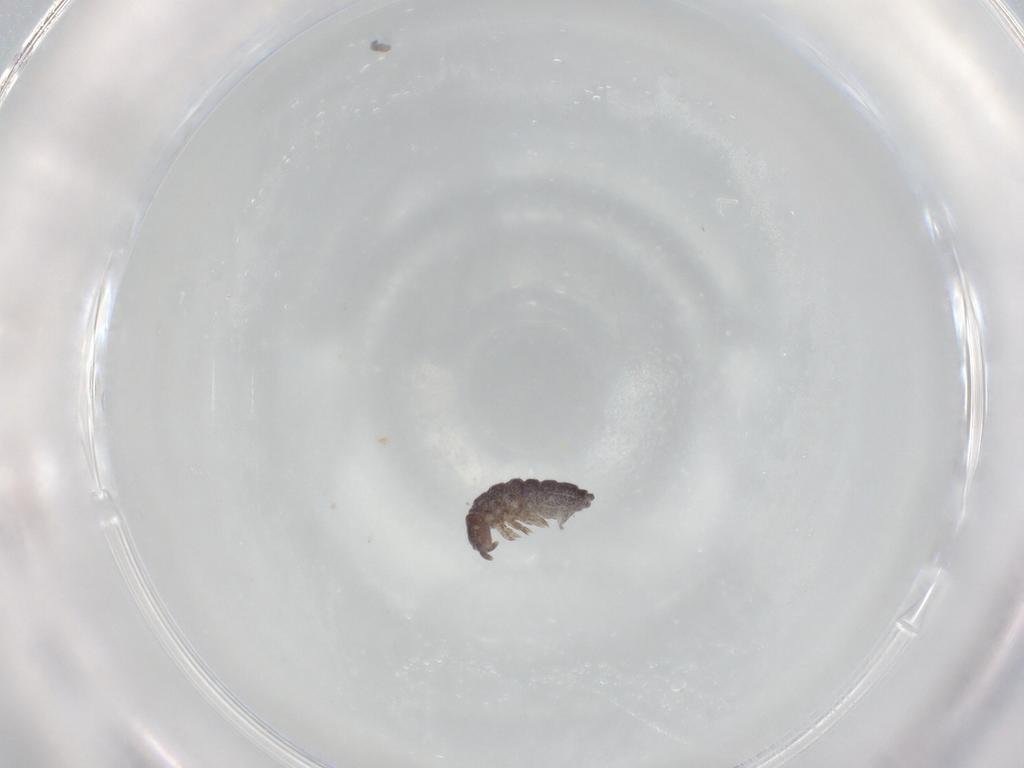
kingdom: Animalia
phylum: Arthropoda
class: Collembola
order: Poduromorpha
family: Hypogastruridae
